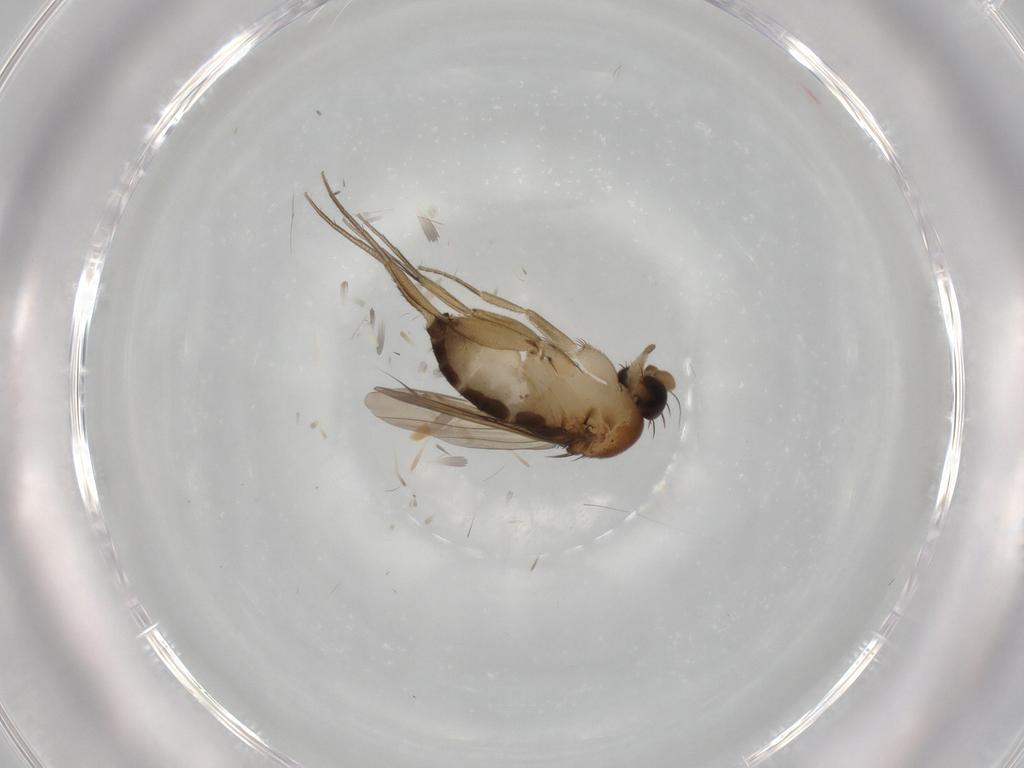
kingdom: Animalia
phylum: Arthropoda
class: Insecta
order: Diptera
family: Phoridae
